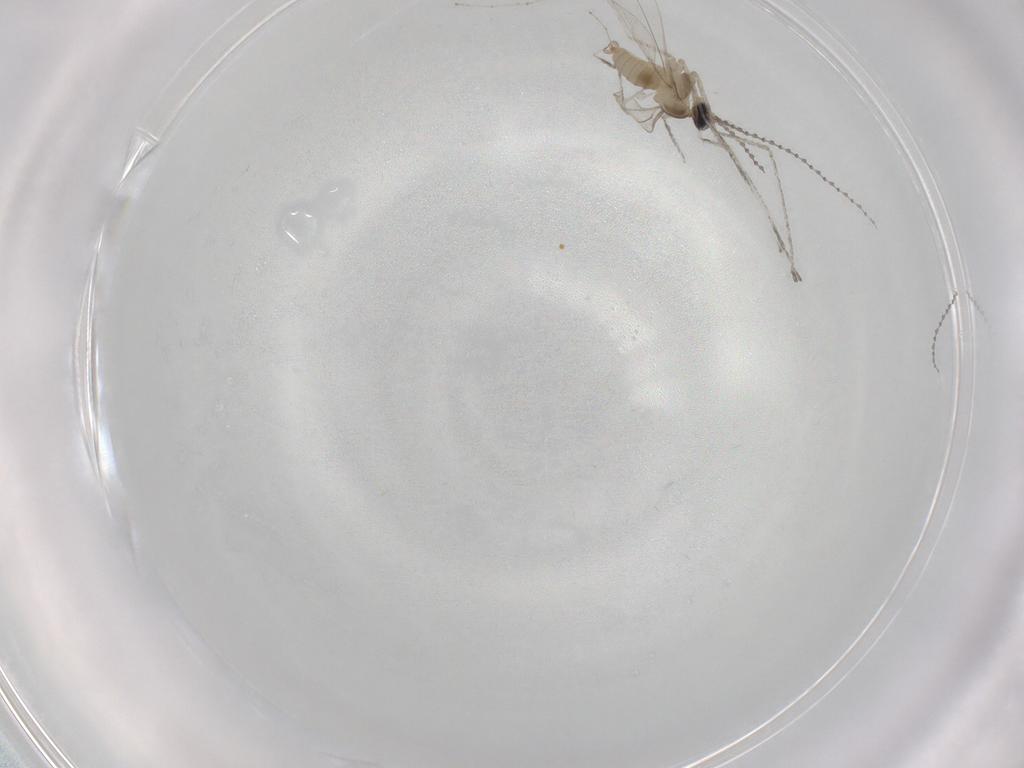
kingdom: Animalia
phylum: Arthropoda
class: Insecta
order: Diptera
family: Cecidomyiidae
